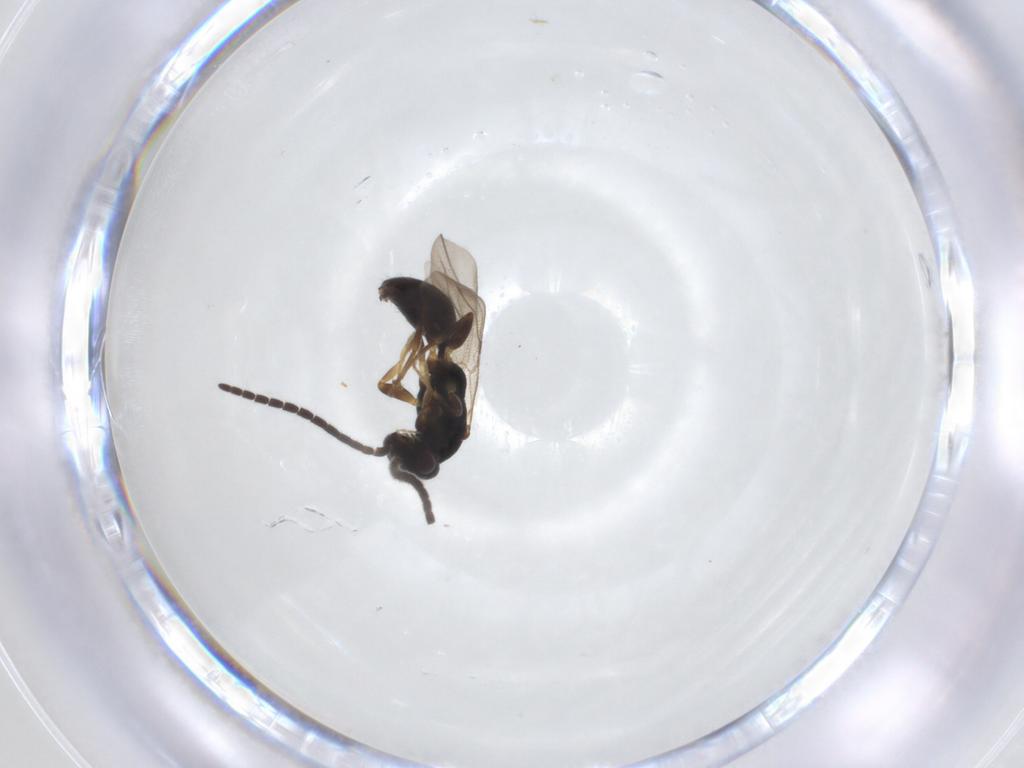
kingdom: Animalia
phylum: Arthropoda
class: Insecta
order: Hymenoptera
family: Bethylidae
